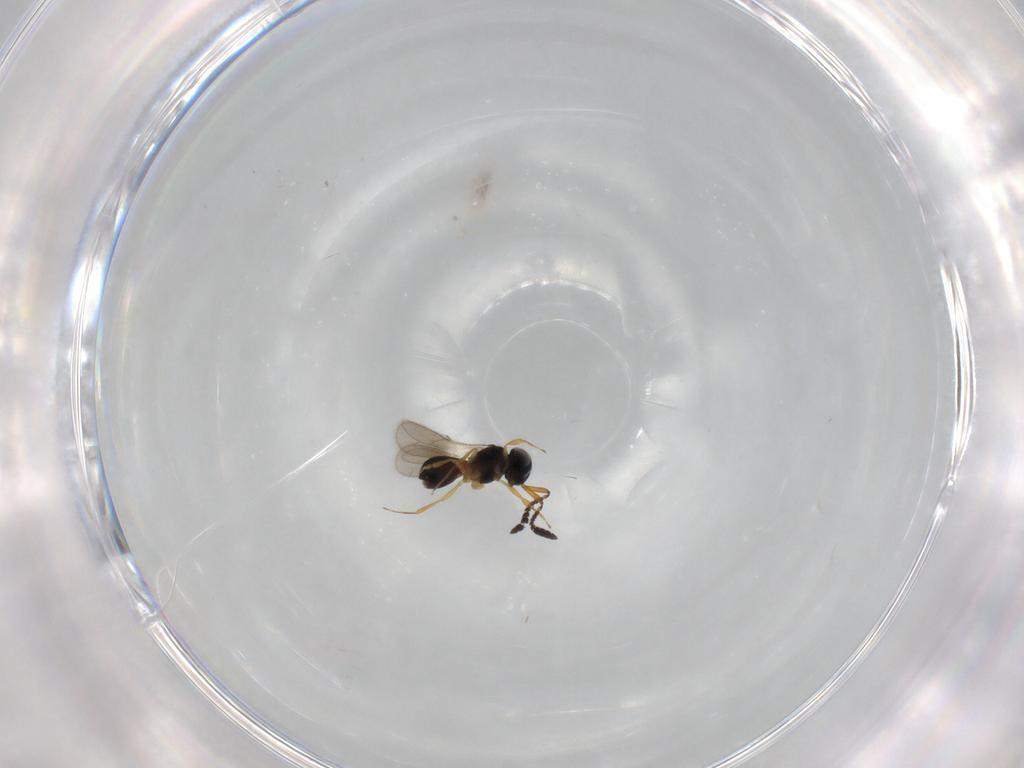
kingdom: Animalia
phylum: Arthropoda
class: Insecta
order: Hymenoptera
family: Scelionidae
